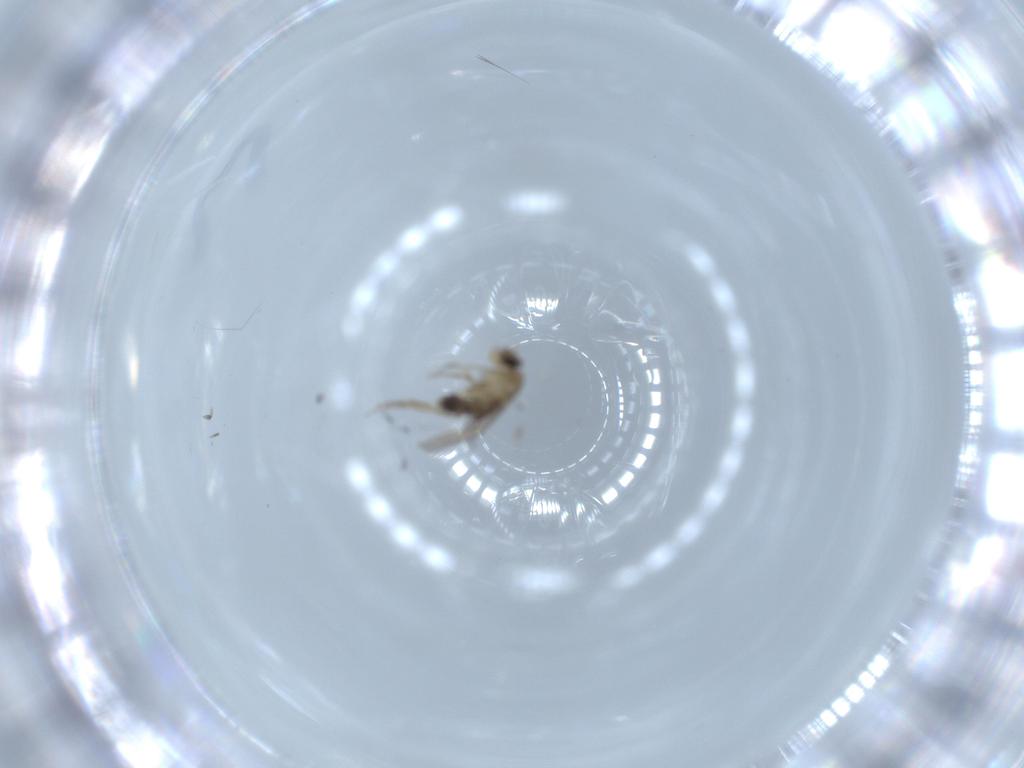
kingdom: Animalia
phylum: Arthropoda
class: Insecta
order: Diptera
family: Phoridae
